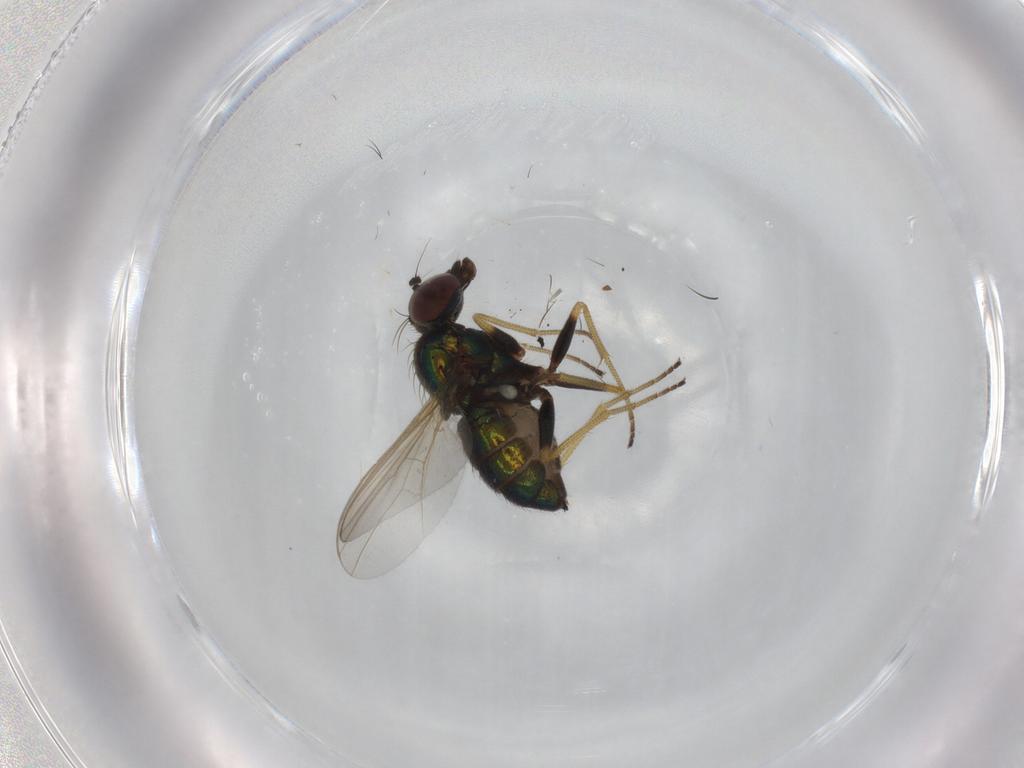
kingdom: Animalia
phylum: Arthropoda
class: Insecta
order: Diptera
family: Dolichopodidae
